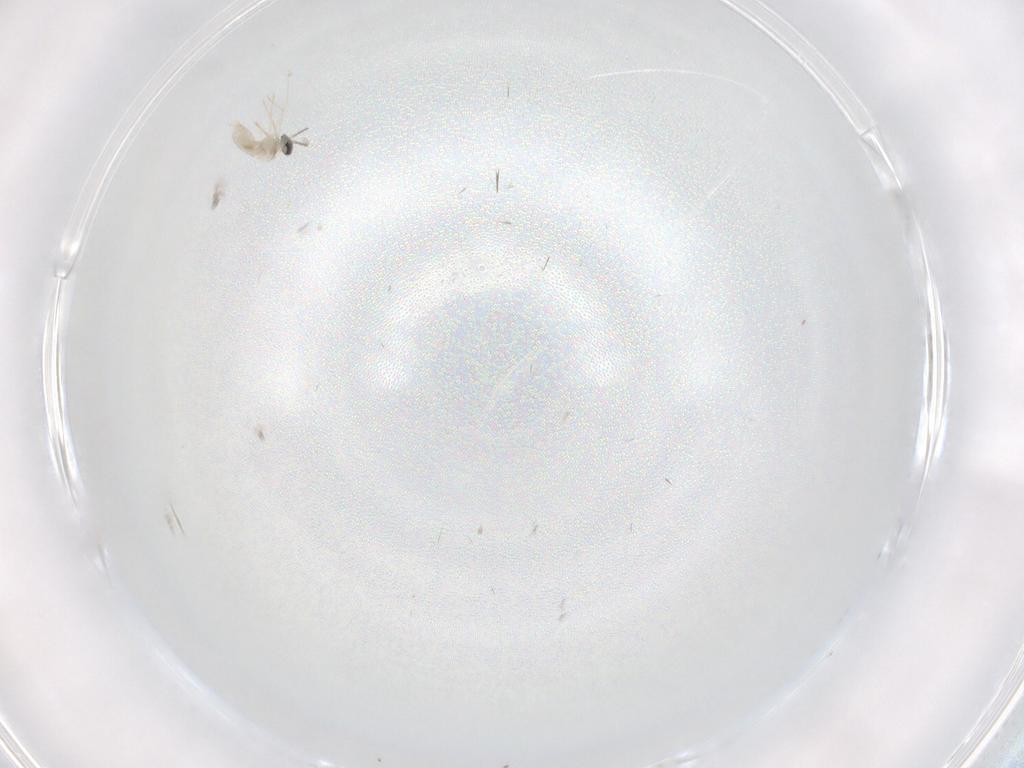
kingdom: Animalia
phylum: Arthropoda
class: Insecta
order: Diptera
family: Cecidomyiidae
